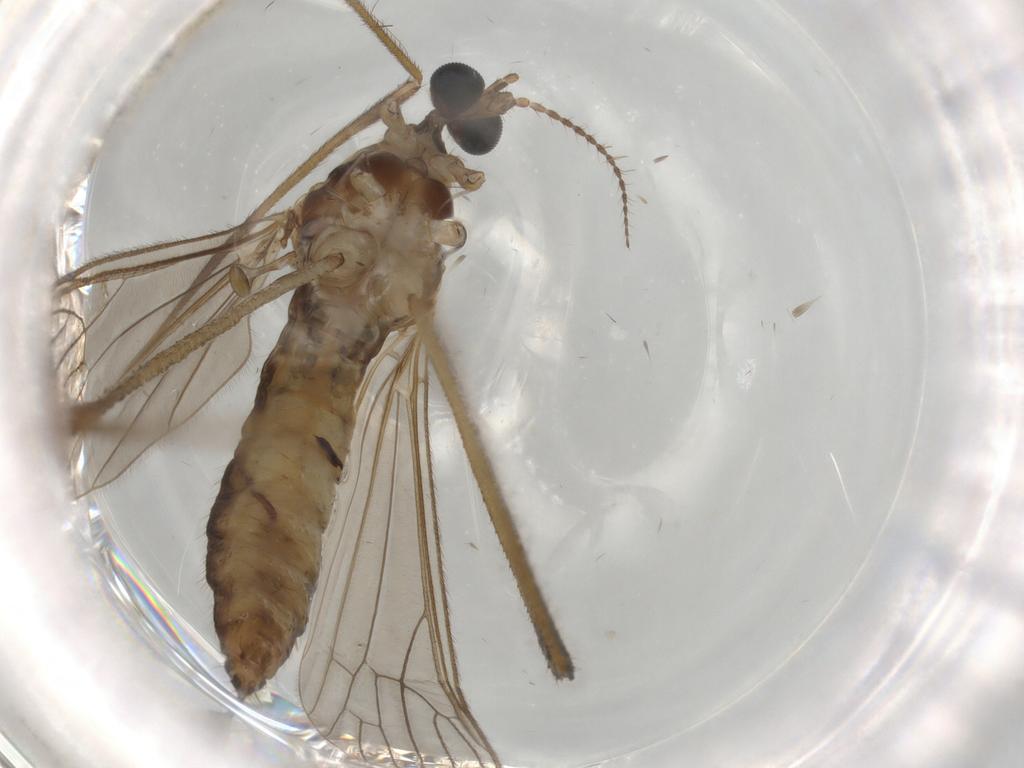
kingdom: Animalia
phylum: Arthropoda
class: Insecta
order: Diptera
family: Limoniidae
